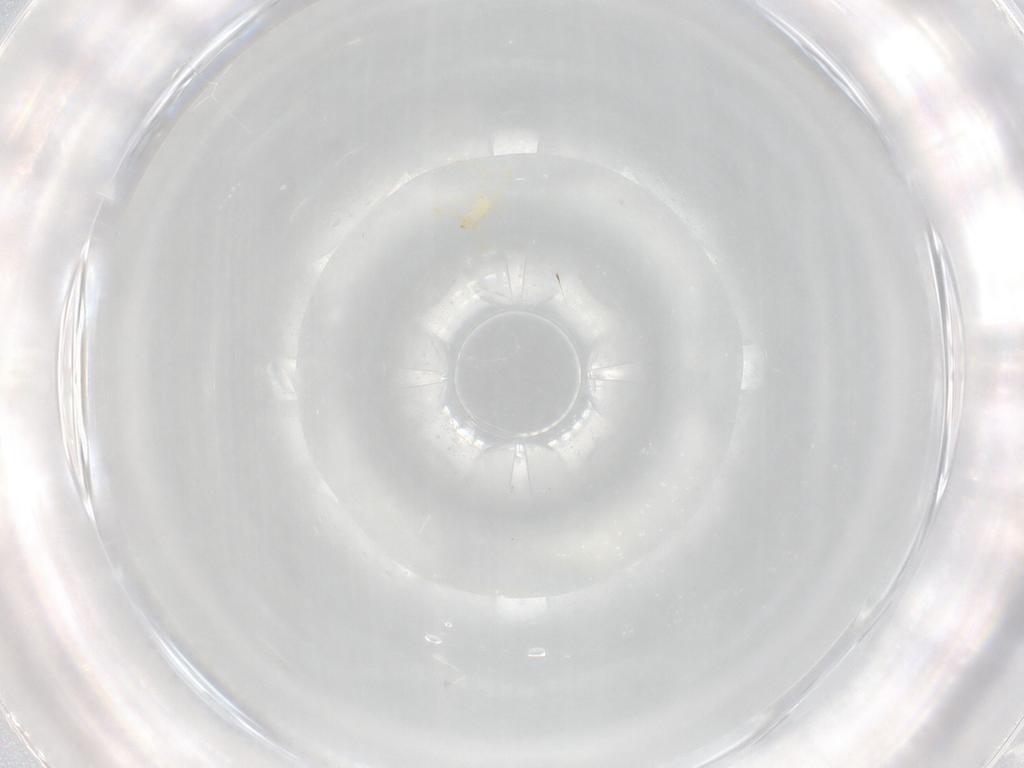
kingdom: Animalia
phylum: Arthropoda
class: Arachnida
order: Trombidiformes
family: Erythraeidae
